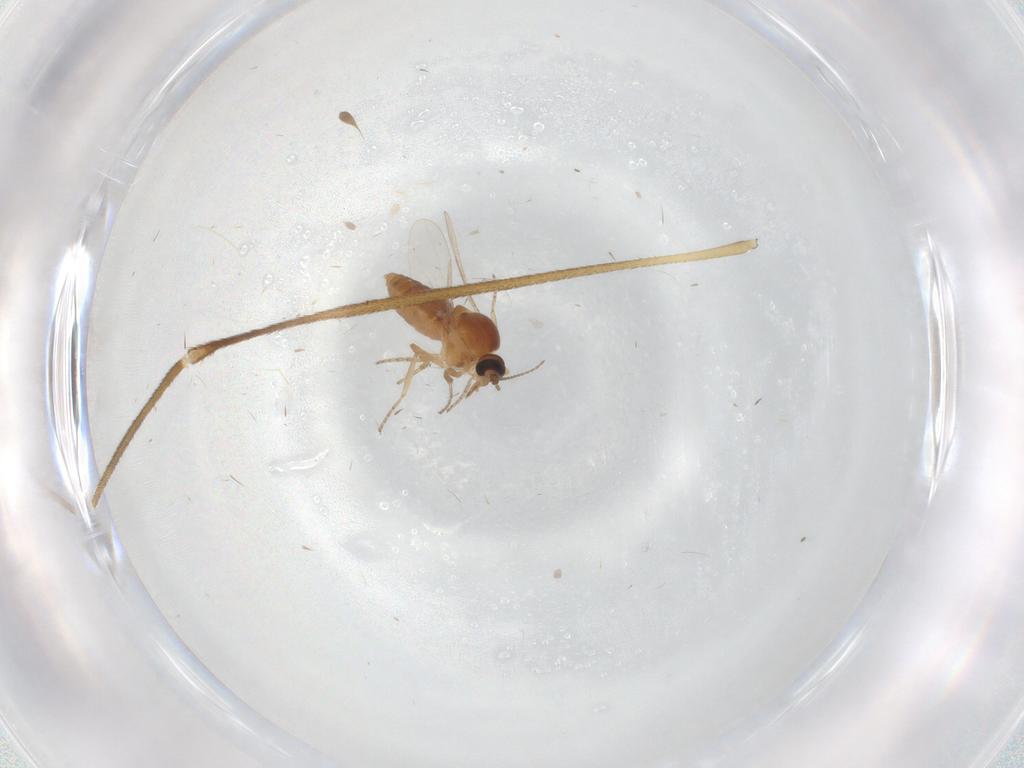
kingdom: Animalia
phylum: Arthropoda
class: Insecta
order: Diptera
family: Limoniidae
